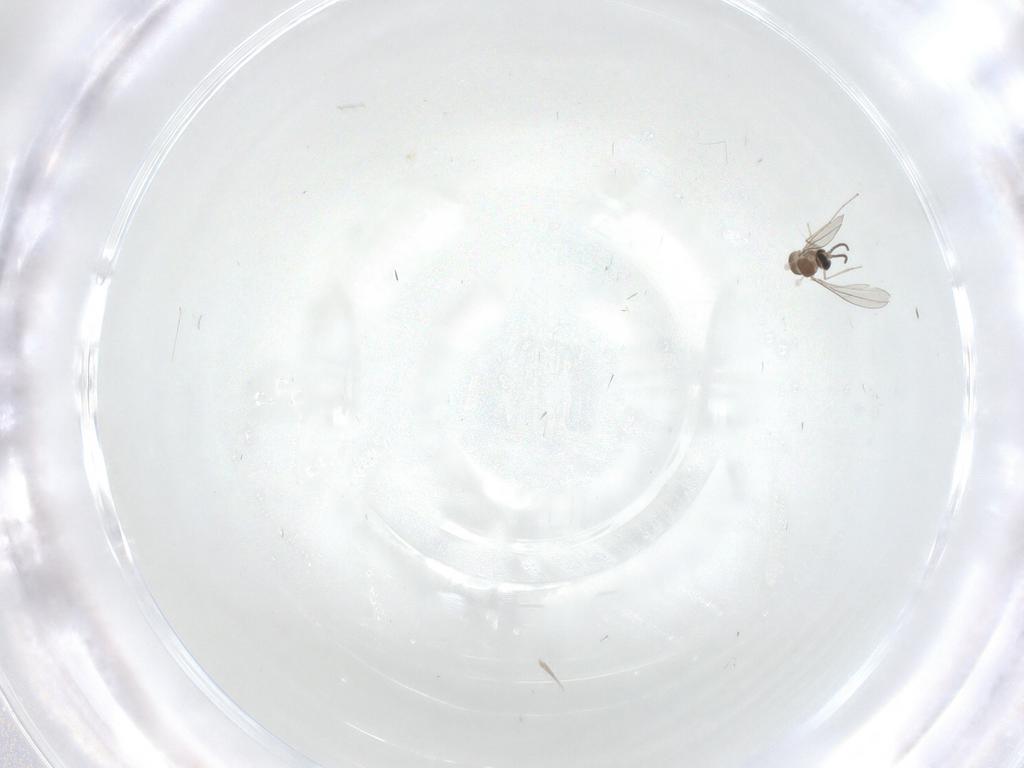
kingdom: Animalia
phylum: Arthropoda
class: Insecta
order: Diptera
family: Cecidomyiidae
